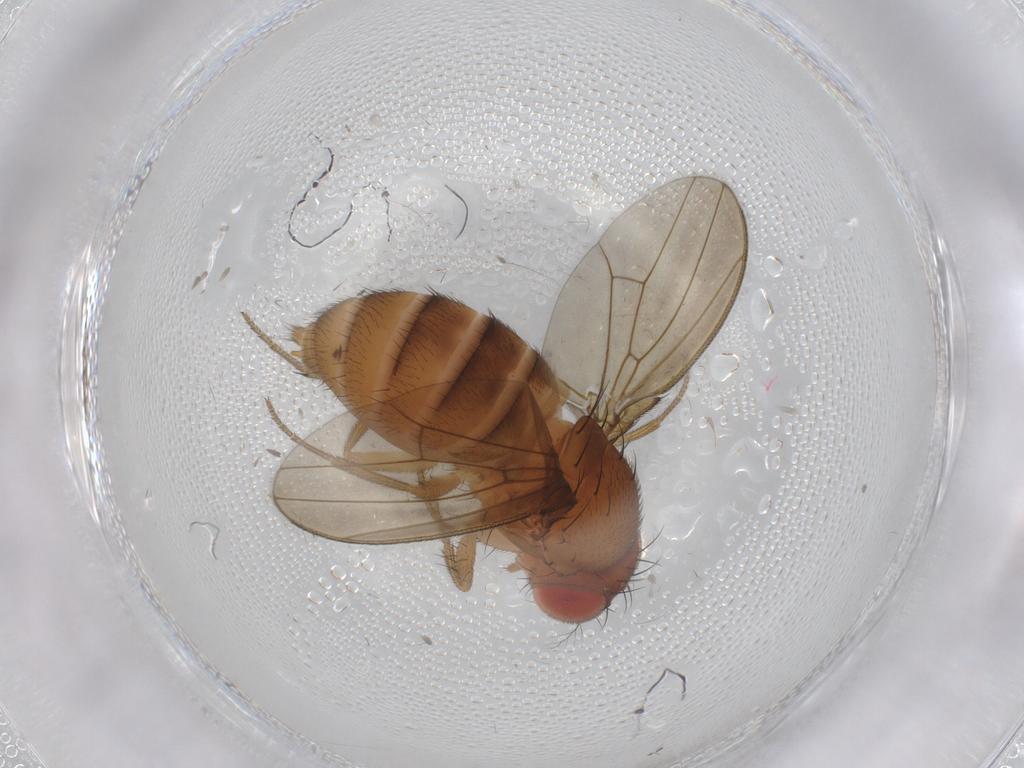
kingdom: Animalia
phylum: Arthropoda
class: Insecta
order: Diptera
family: Drosophilidae
